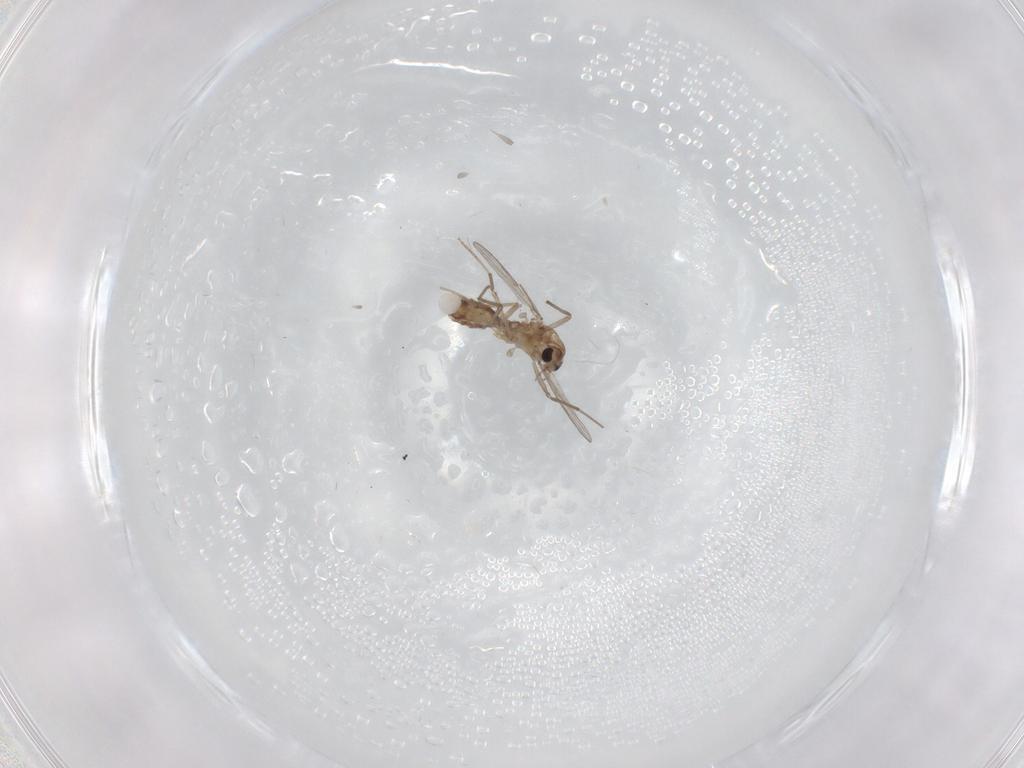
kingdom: Animalia
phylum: Arthropoda
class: Insecta
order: Diptera
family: Chironomidae
